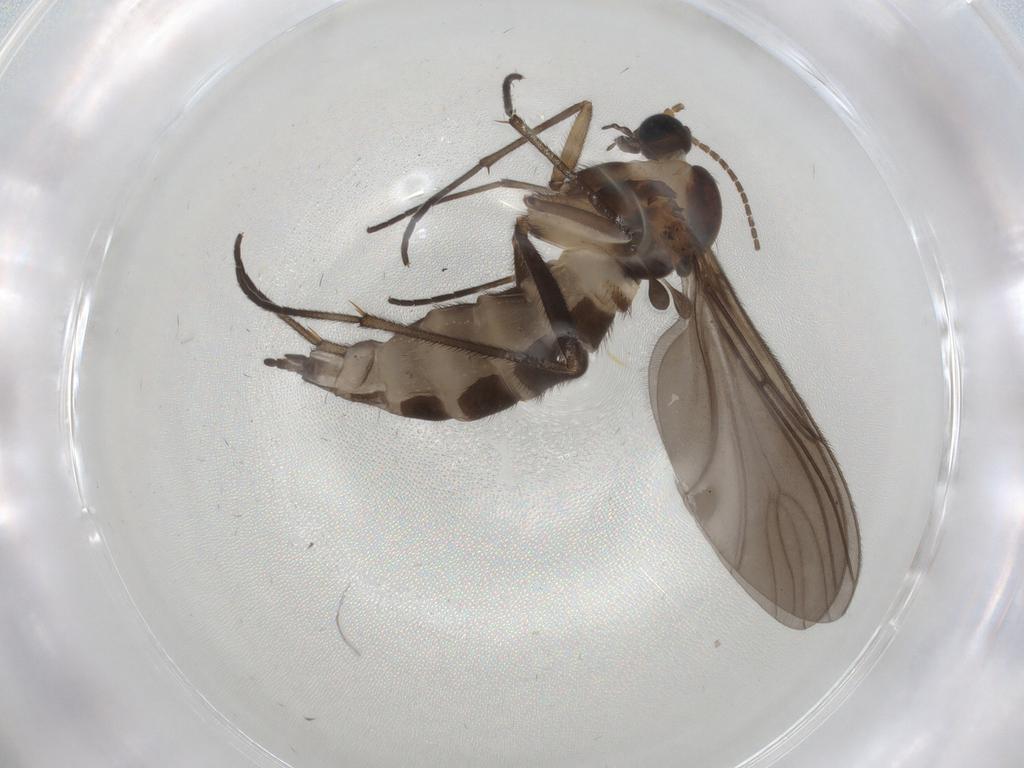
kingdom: Animalia
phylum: Arthropoda
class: Insecta
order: Diptera
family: Sciaridae
